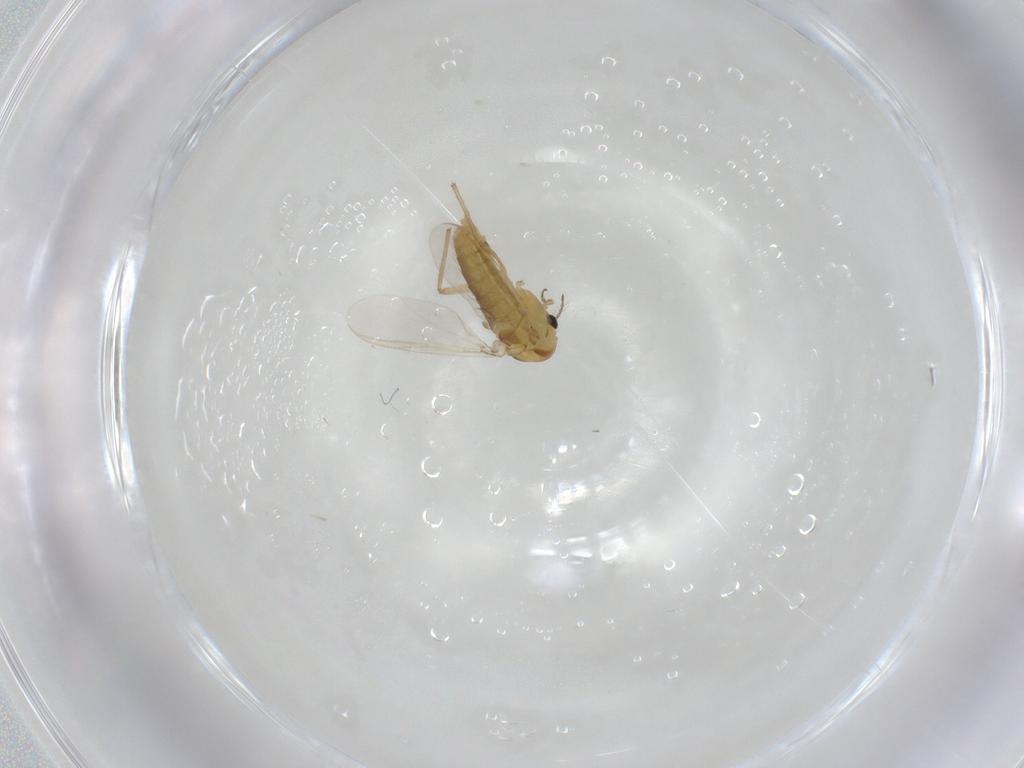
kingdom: Animalia
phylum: Arthropoda
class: Insecta
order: Diptera
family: Chironomidae
